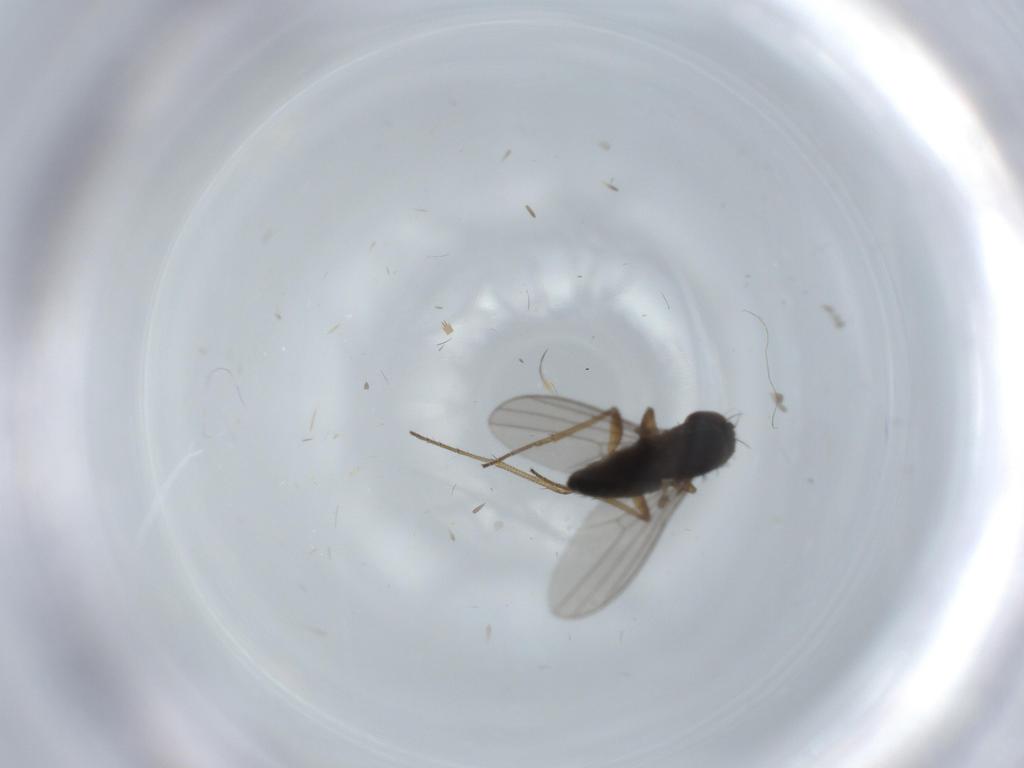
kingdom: Animalia
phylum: Arthropoda
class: Insecta
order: Diptera
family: Dolichopodidae
